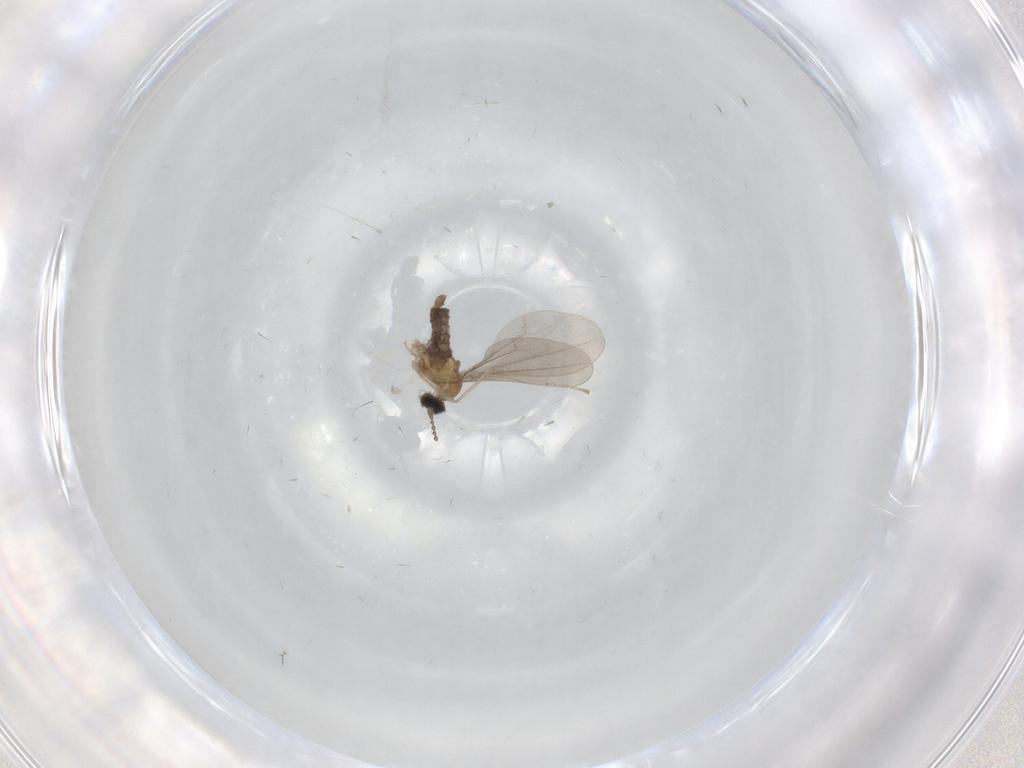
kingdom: Animalia
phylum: Arthropoda
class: Insecta
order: Diptera
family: Cecidomyiidae
